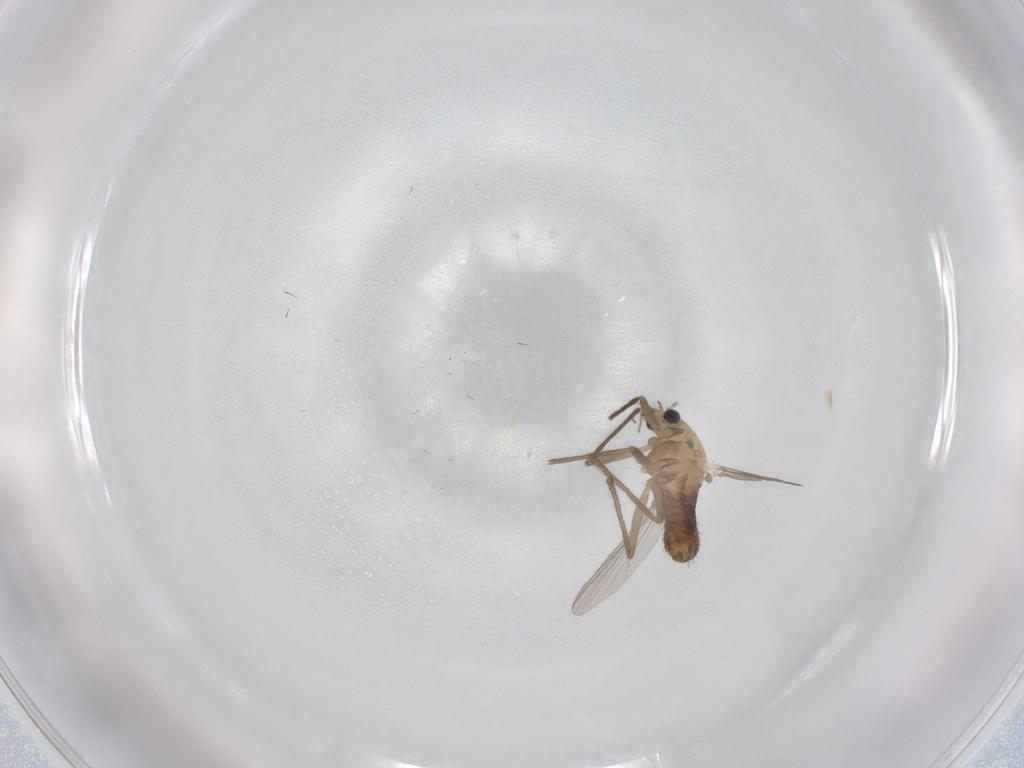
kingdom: Animalia
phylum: Arthropoda
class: Insecta
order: Diptera
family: Chironomidae
